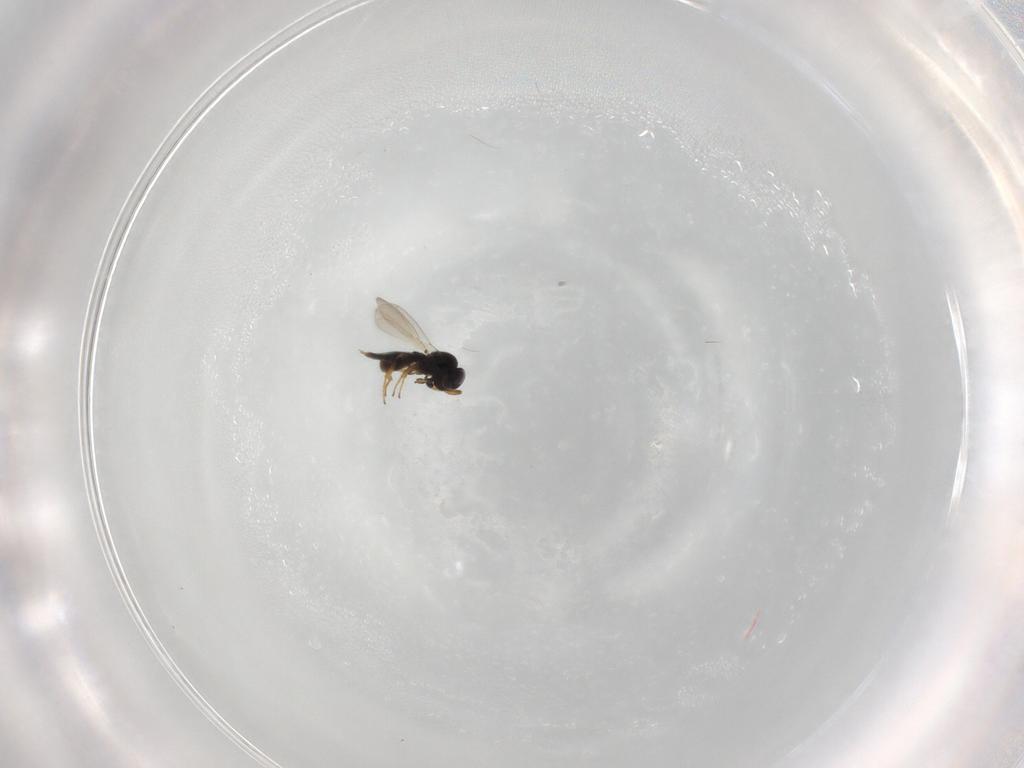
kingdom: Animalia
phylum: Arthropoda
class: Insecta
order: Hymenoptera
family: Platygastridae
